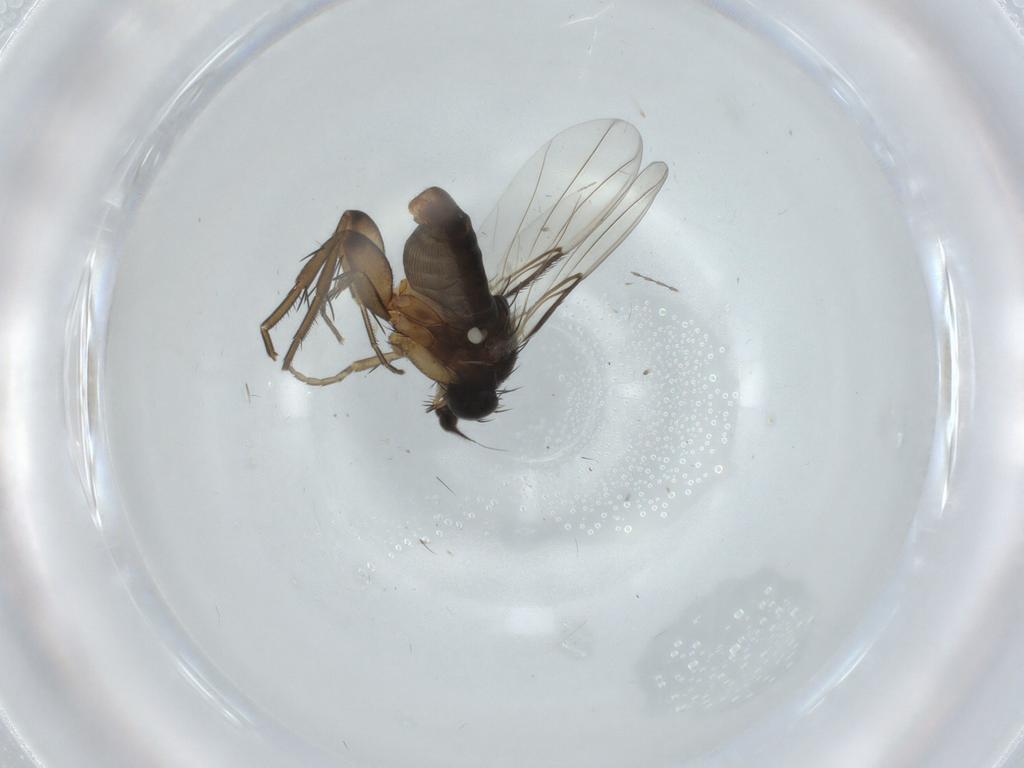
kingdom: Animalia
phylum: Arthropoda
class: Insecta
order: Diptera
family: Phoridae
